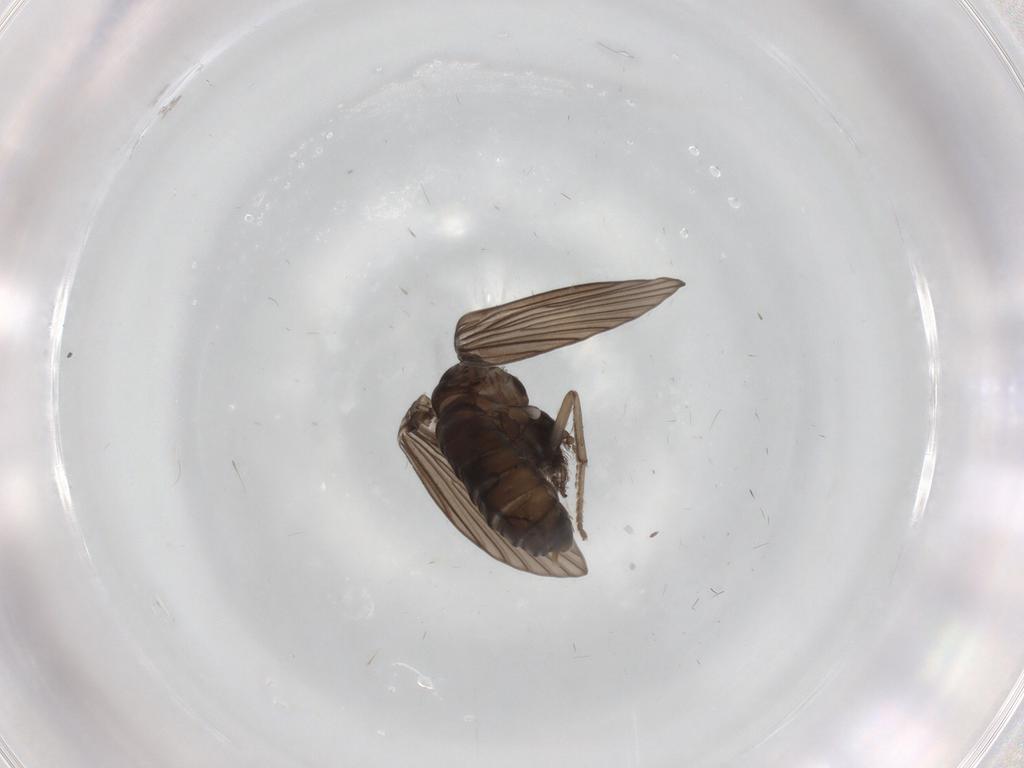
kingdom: Animalia
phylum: Arthropoda
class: Insecta
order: Diptera
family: Psychodidae
